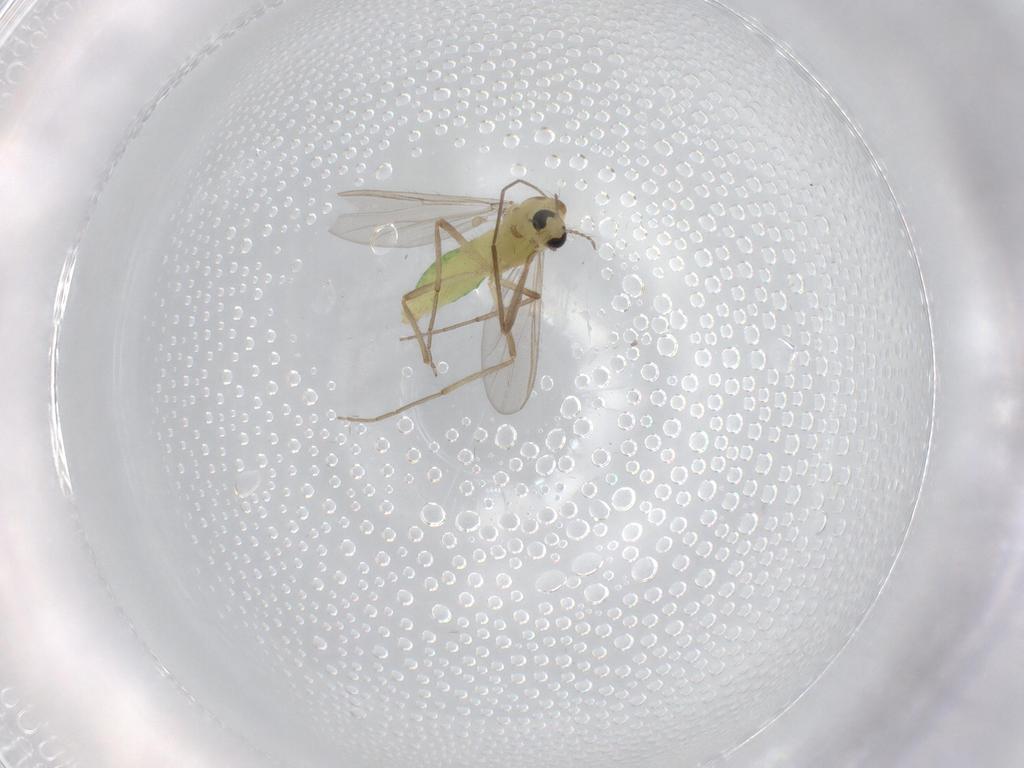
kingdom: Animalia
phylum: Arthropoda
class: Insecta
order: Diptera
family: Chironomidae
